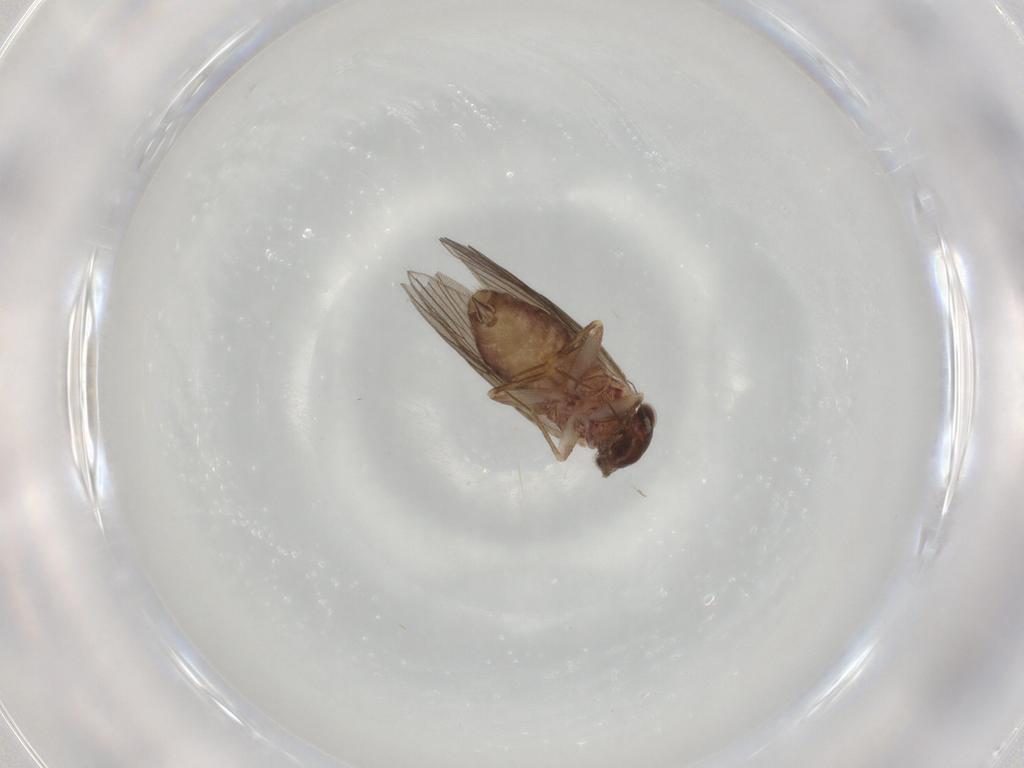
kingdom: Animalia
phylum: Arthropoda
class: Insecta
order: Psocodea
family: Lepidopsocidae
